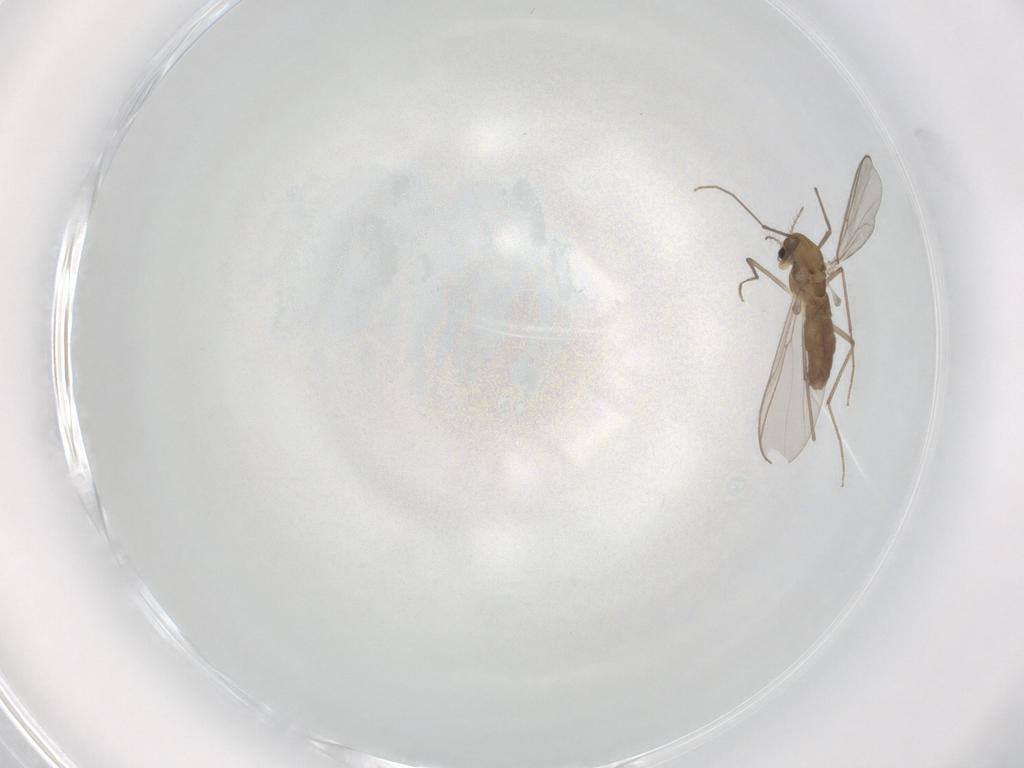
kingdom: Animalia
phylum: Arthropoda
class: Insecta
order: Diptera
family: Chironomidae
